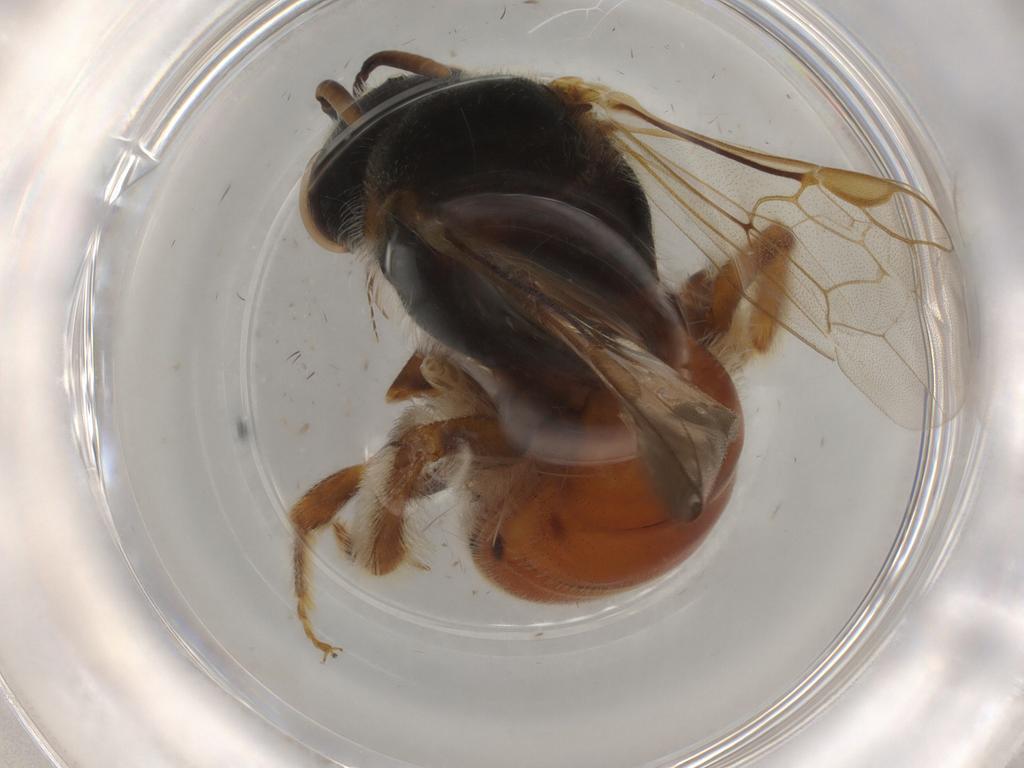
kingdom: Animalia
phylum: Arthropoda
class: Insecta
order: Hymenoptera
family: Halictidae
